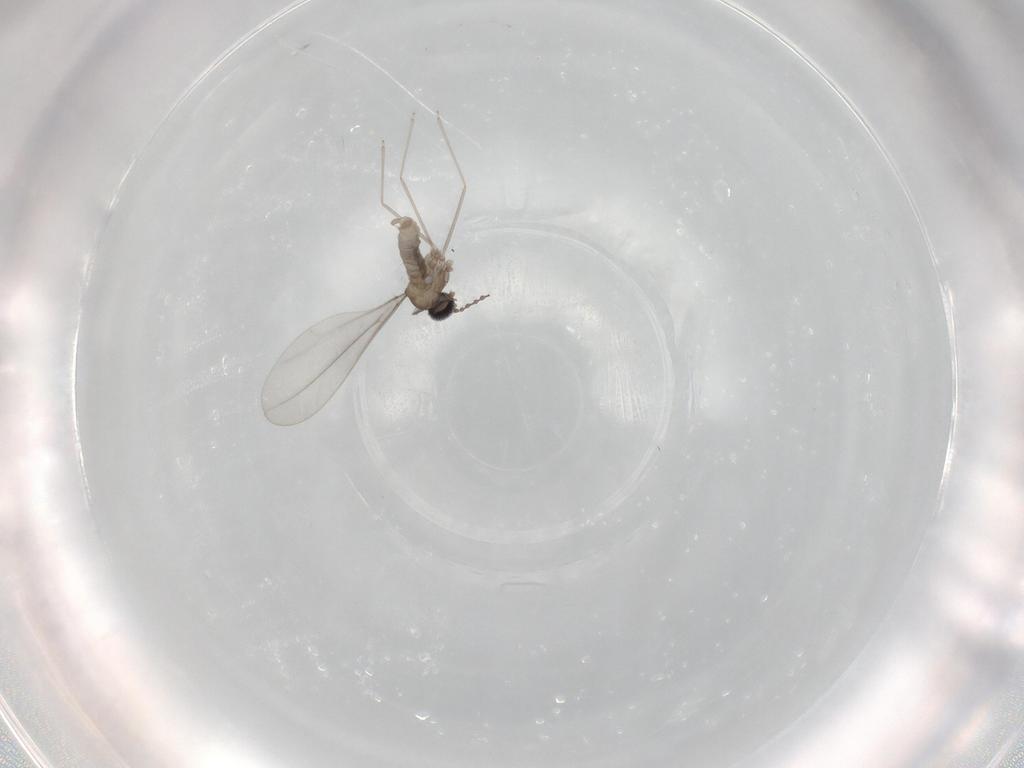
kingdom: Animalia
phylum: Arthropoda
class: Insecta
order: Diptera
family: Cecidomyiidae
